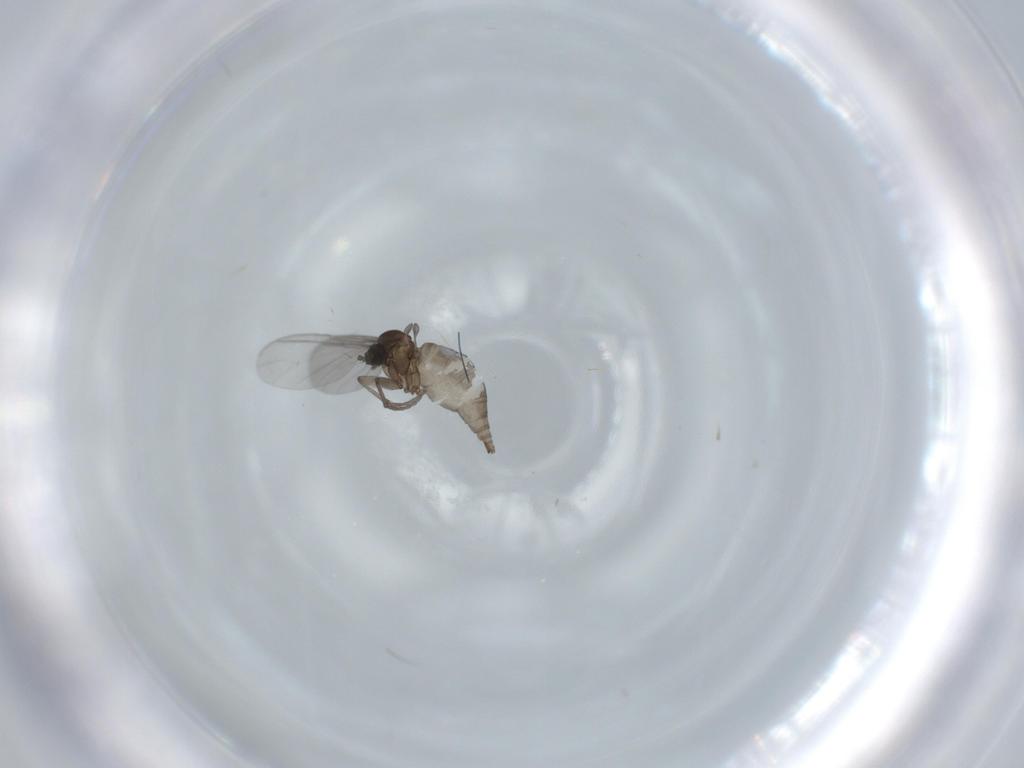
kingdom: Animalia
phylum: Arthropoda
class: Insecta
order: Diptera
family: Sciaridae
